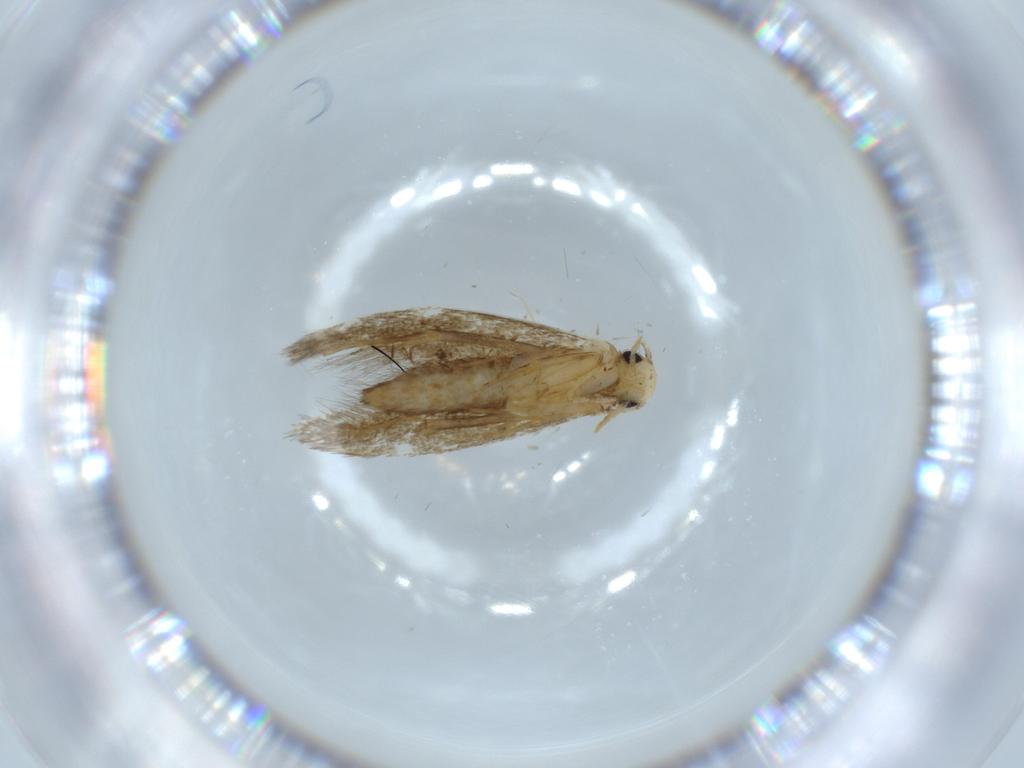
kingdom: Animalia
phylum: Arthropoda
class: Insecta
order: Lepidoptera
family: Tineidae
